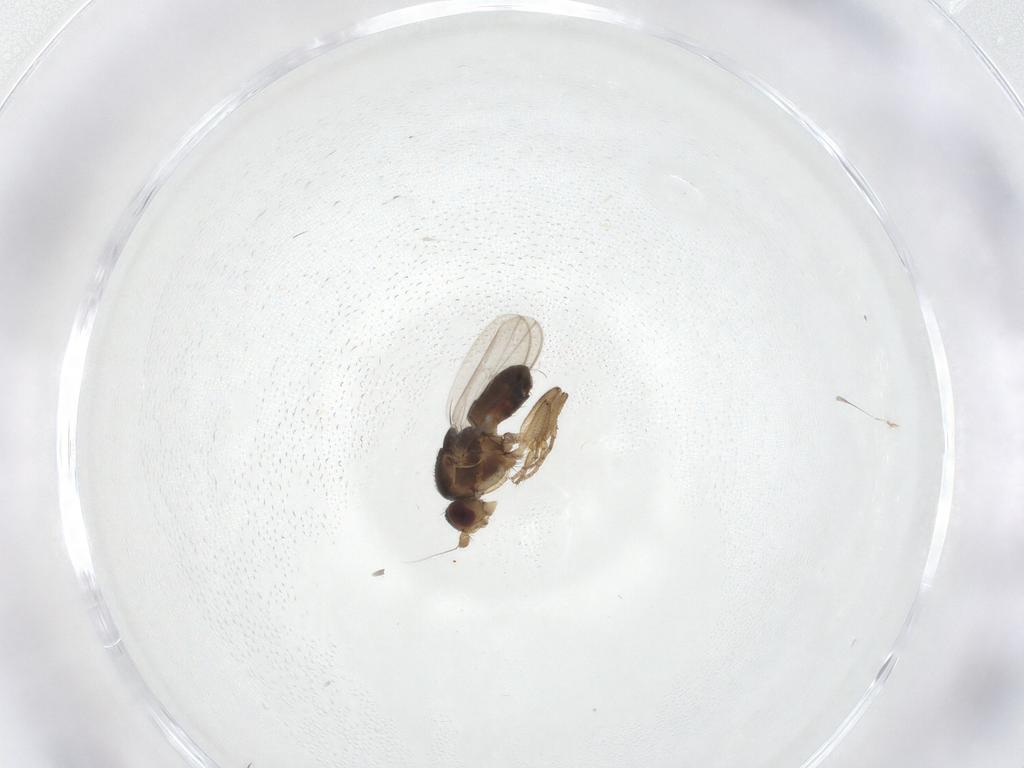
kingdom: Animalia
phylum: Arthropoda
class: Insecta
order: Diptera
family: Sphaeroceridae
